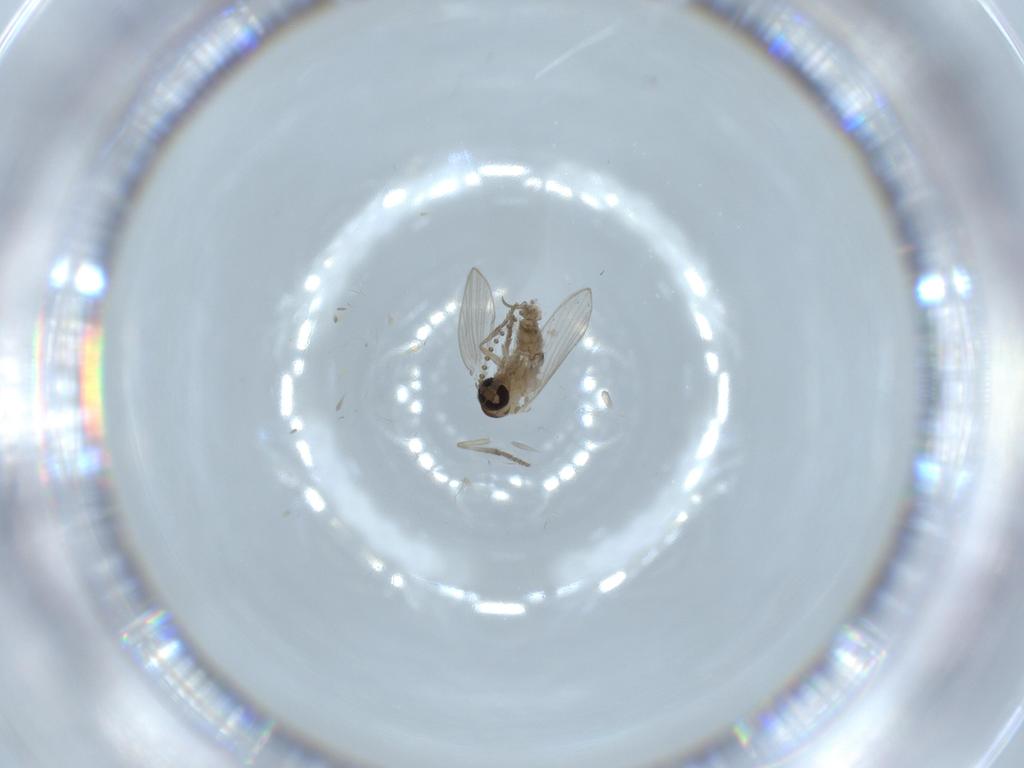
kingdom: Animalia
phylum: Arthropoda
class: Insecta
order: Diptera
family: Psychodidae
